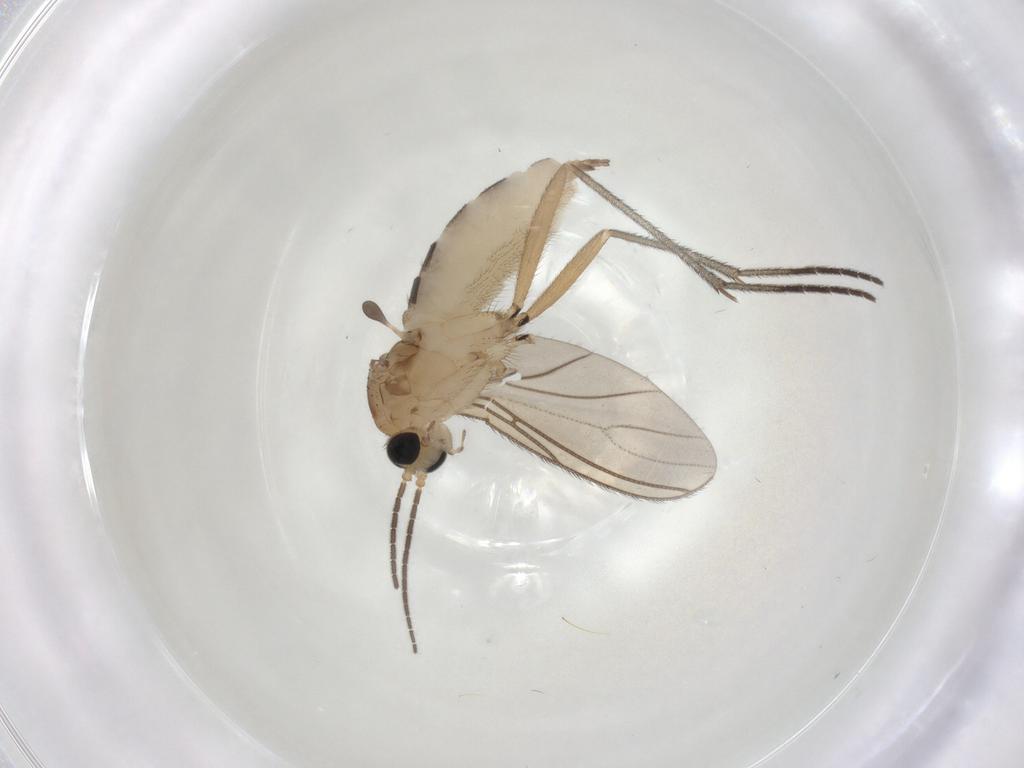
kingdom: Animalia
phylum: Arthropoda
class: Insecta
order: Diptera
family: Sciaridae
